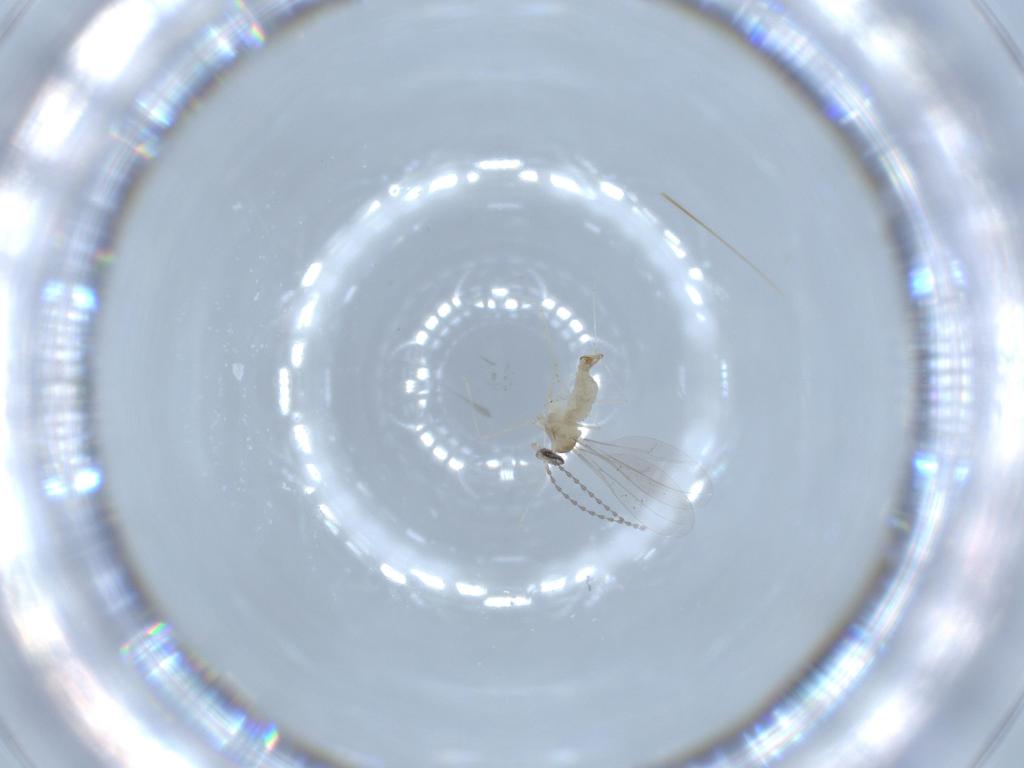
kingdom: Animalia
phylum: Arthropoda
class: Insecta
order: Diptera
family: Cecidomyiidae
